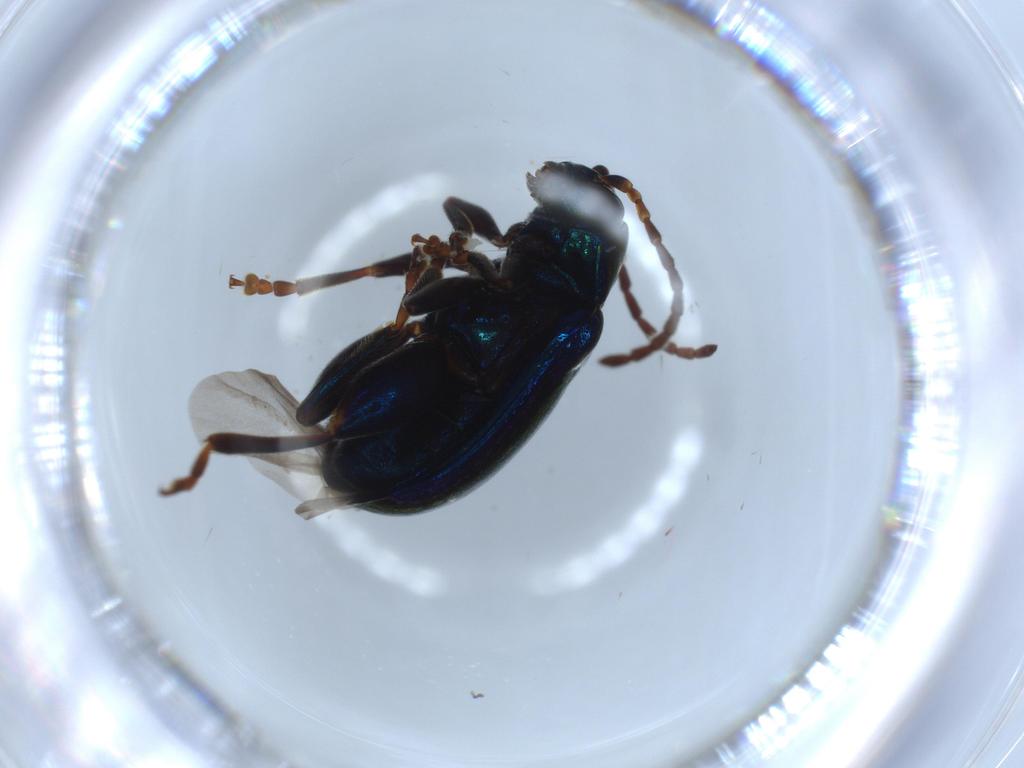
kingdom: Animalia
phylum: Arthropoda
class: Insecta
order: Coleoptera
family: Chrysomelidae
